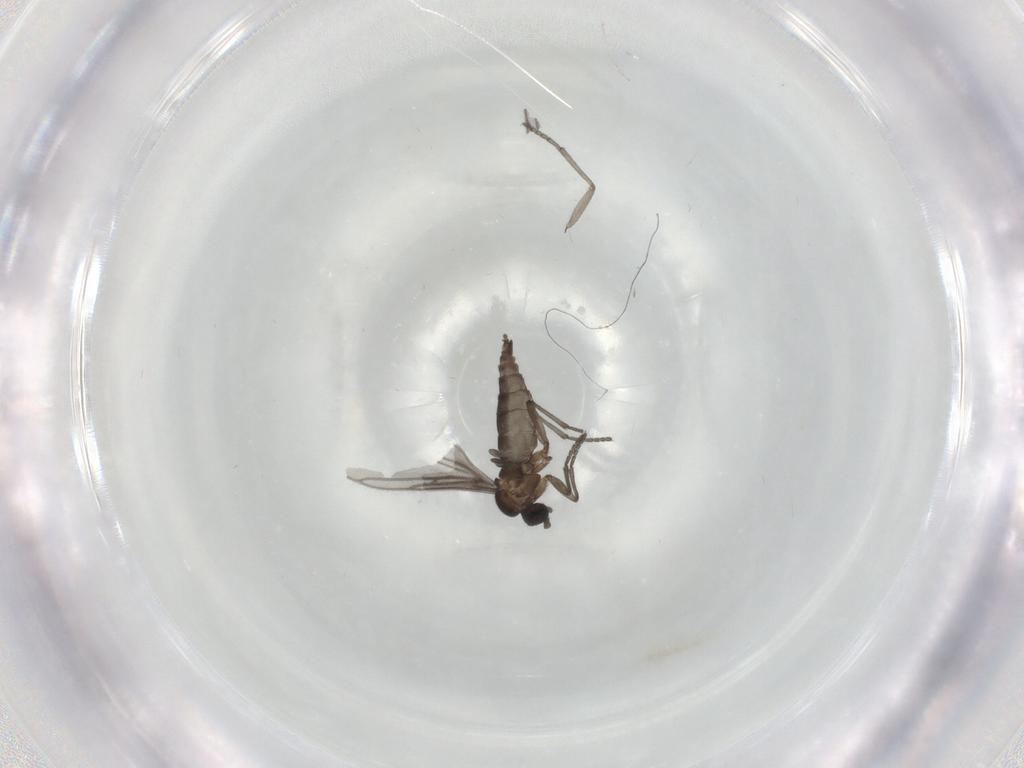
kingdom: Animalia
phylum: Arthropoda
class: Insecta
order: Diptera
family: Sciaridae
